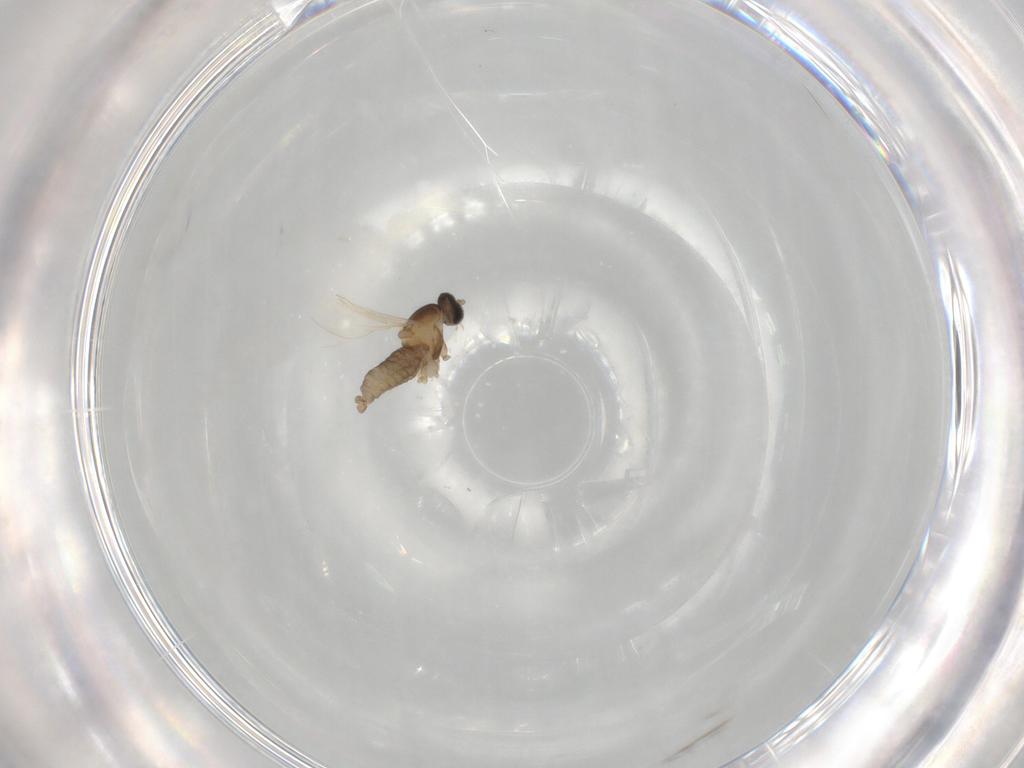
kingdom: Animalia
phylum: Arthropoda
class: Insecta
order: Diptera
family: Cecidomyiidae
